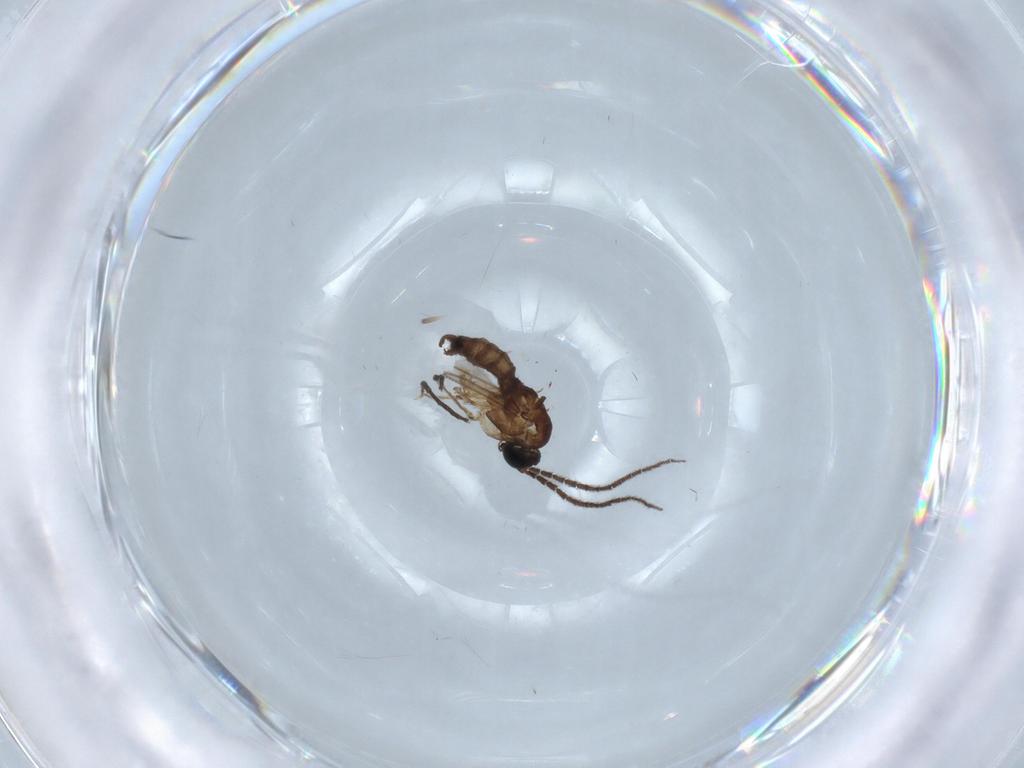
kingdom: Animalia
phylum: Arthropoda
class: Insecta
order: Diptera
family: Sciaridae
